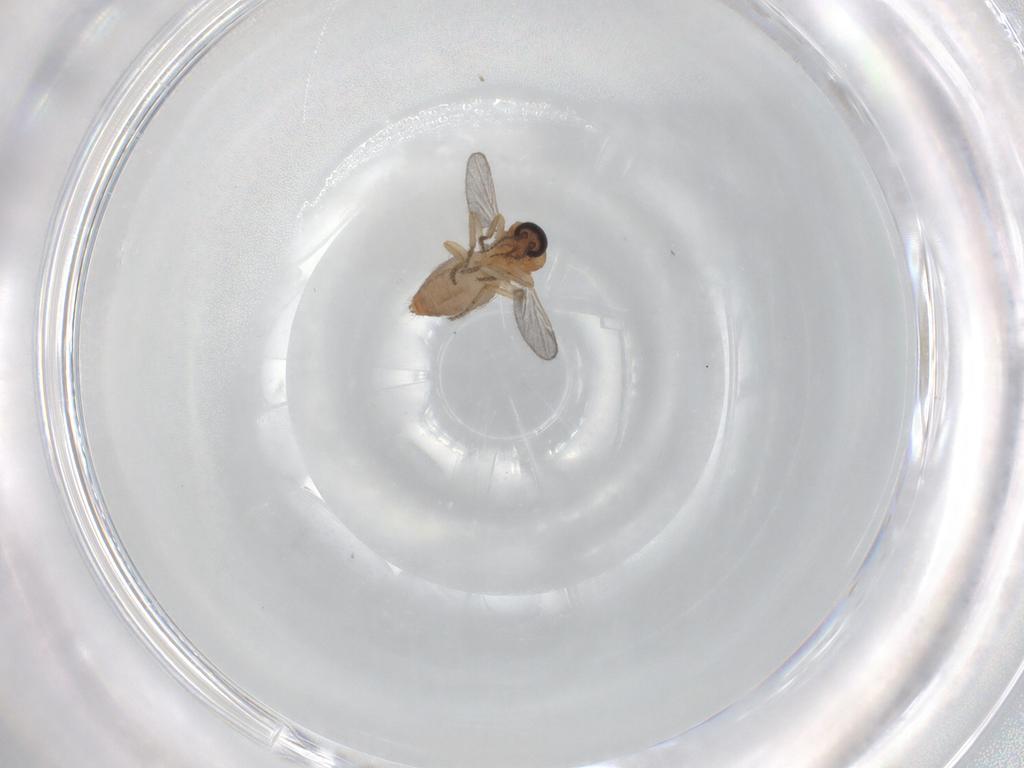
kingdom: Animalia
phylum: Arthropoda
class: Insecta
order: Diptera
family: Ceratopogonidae
